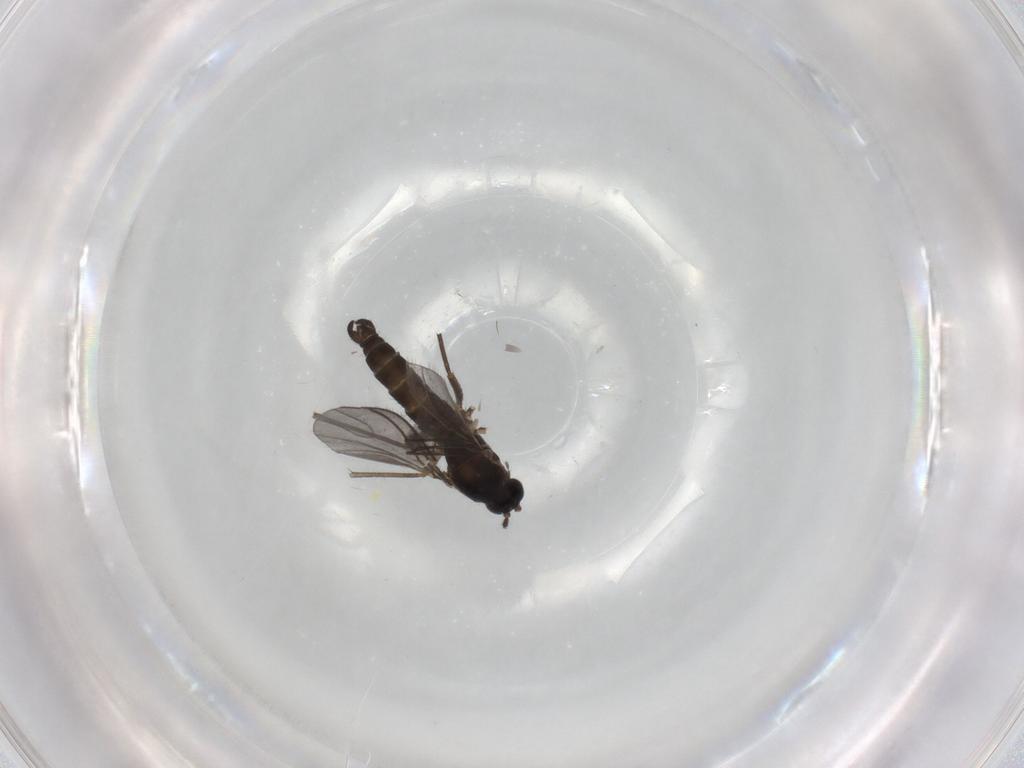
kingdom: Animalia
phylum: Arthropoda
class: Insecta
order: Diptera
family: Sciaridae
